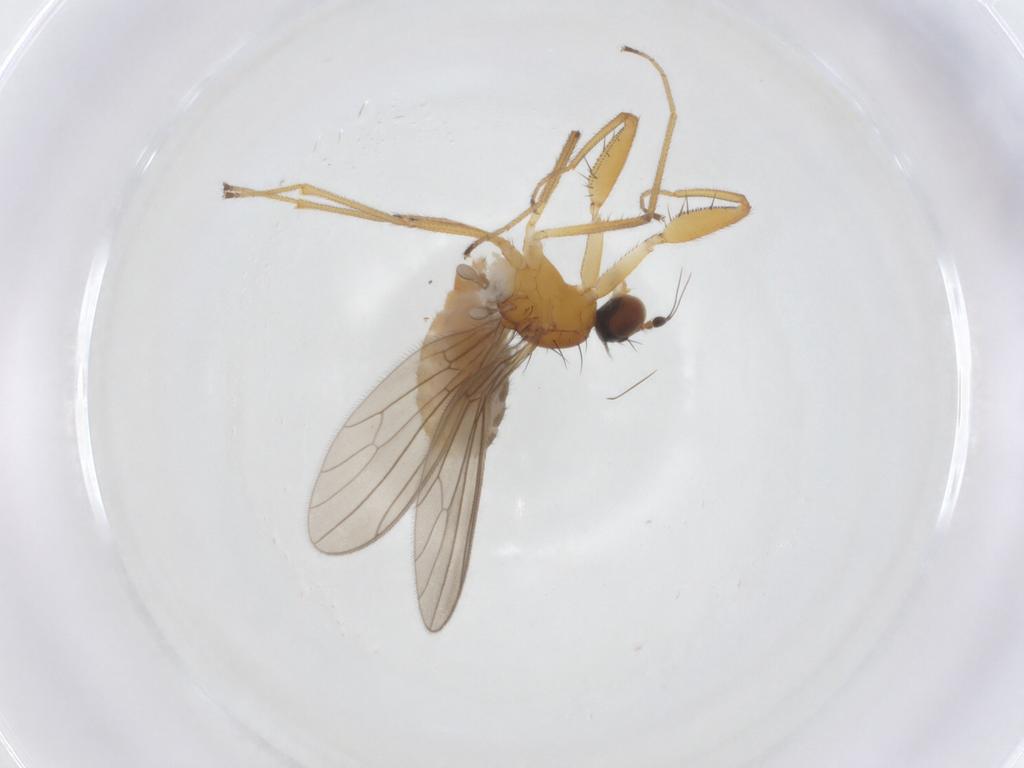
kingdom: Animalia
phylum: Arthropoda
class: Insecta
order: Diptera
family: Empididae
